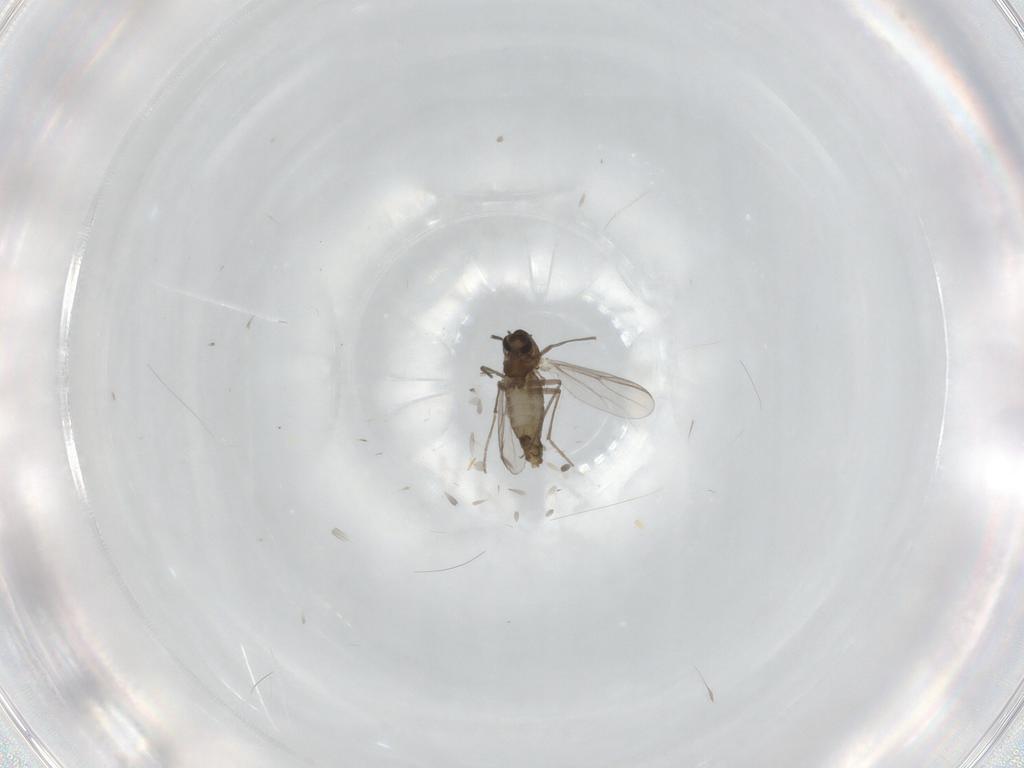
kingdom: Animalia
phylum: Arthropoda
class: Insecta
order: Diptera
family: Chironomidae
